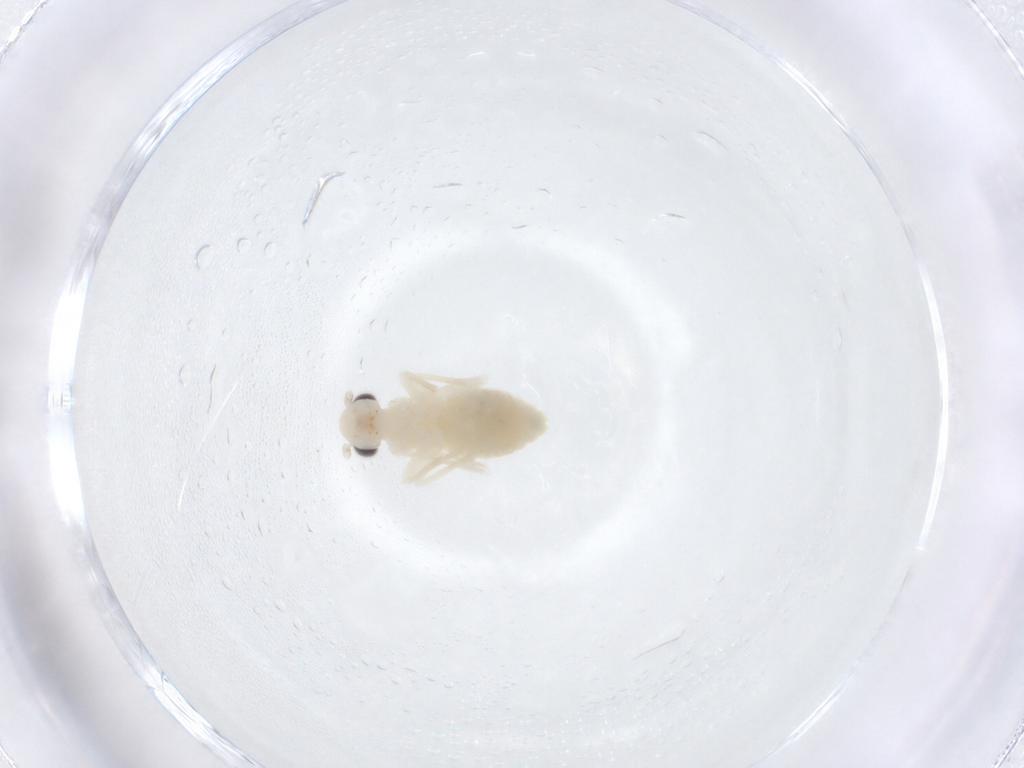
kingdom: Animalia
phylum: Arthropoda
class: Insecta
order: Psocodea
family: Caeciliusidae
